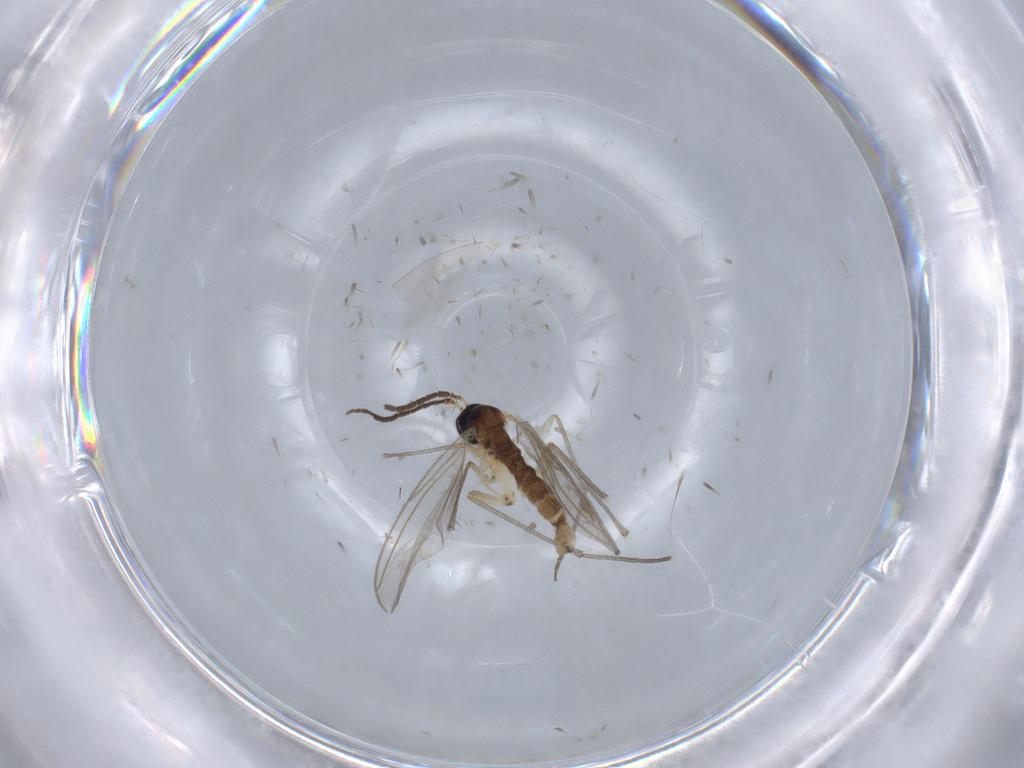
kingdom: Animalia
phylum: Arthropoda
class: Insecta
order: Diptera
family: Sciaridae
